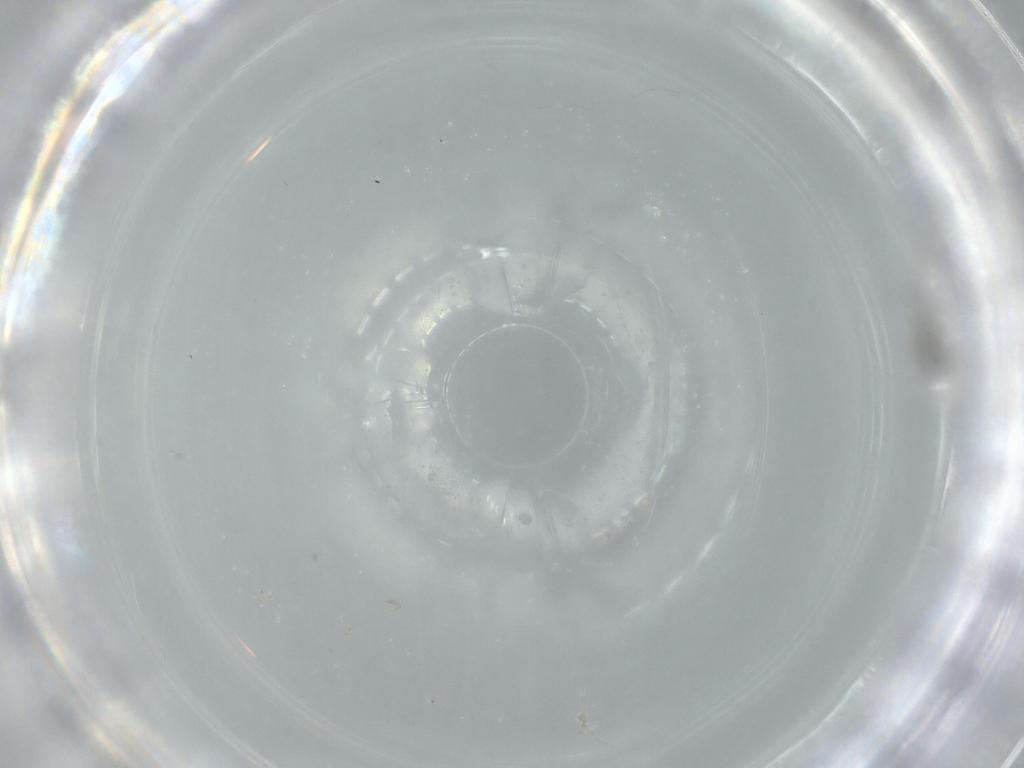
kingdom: Animalia
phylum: Arthropoda
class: Insecta
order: Diptera
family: Cecidomyiidae
